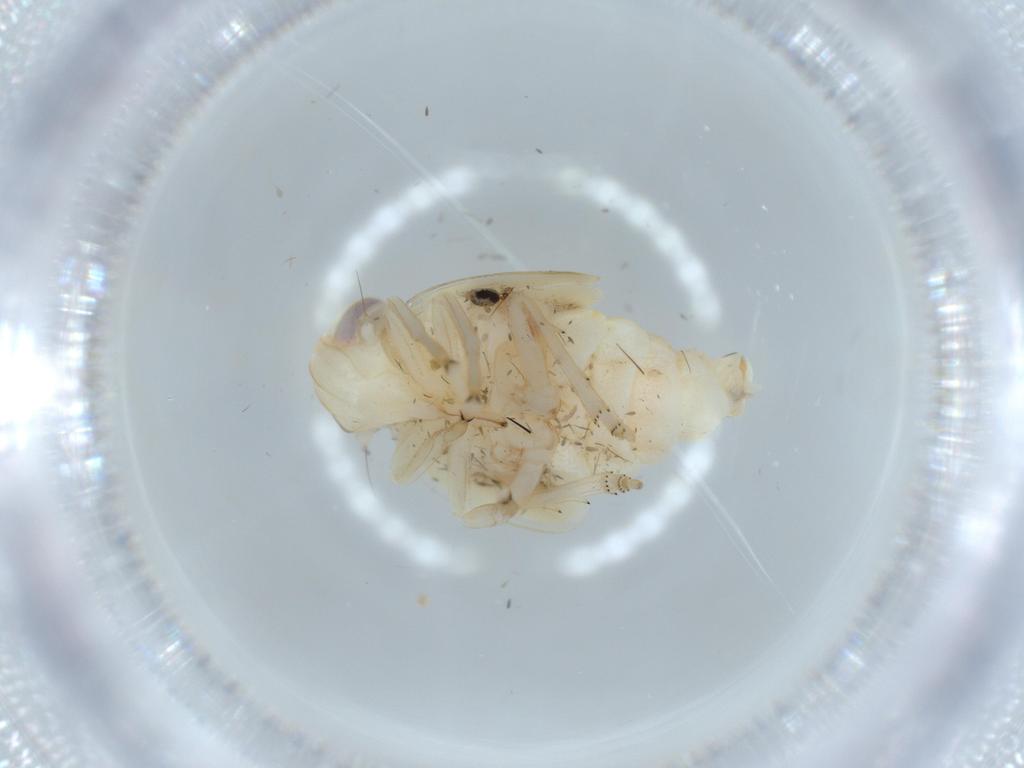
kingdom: Animalia
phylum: Arthropoda
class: Insecta
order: Hemiptera
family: Nogodinidae
